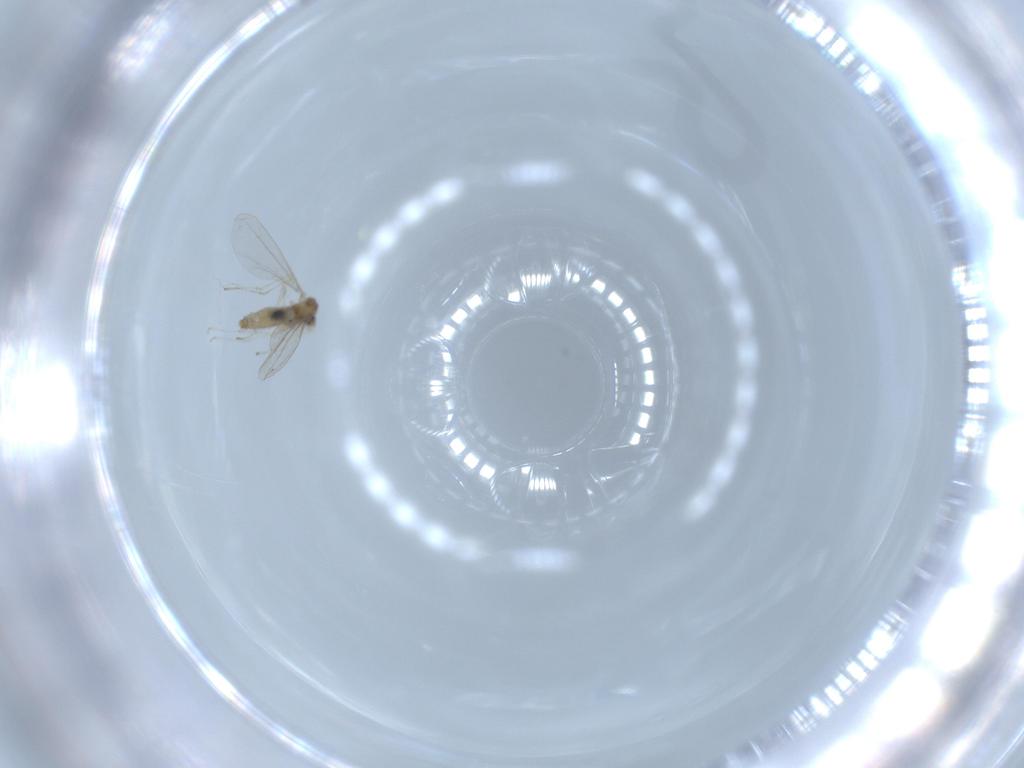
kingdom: Animalia
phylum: Arthropoda
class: Insecta
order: Diptera
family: Cecidomyiidae
